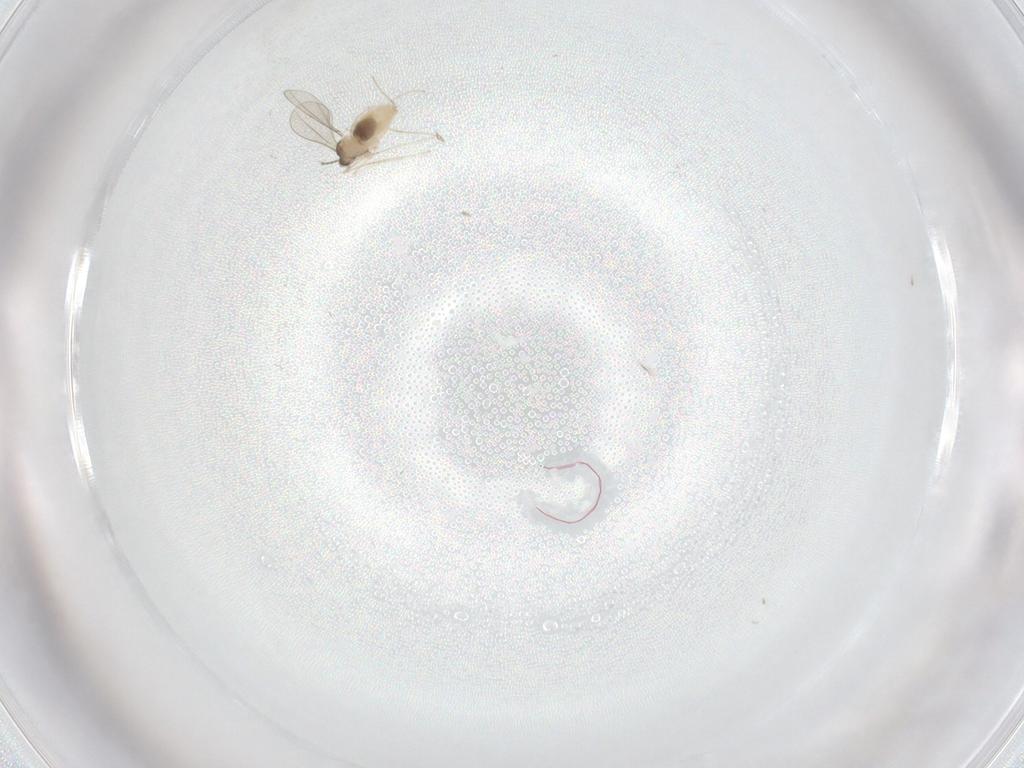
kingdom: Animalia
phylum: Arthropoda
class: Insecta
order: Diptera
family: Cecidomyiidae
